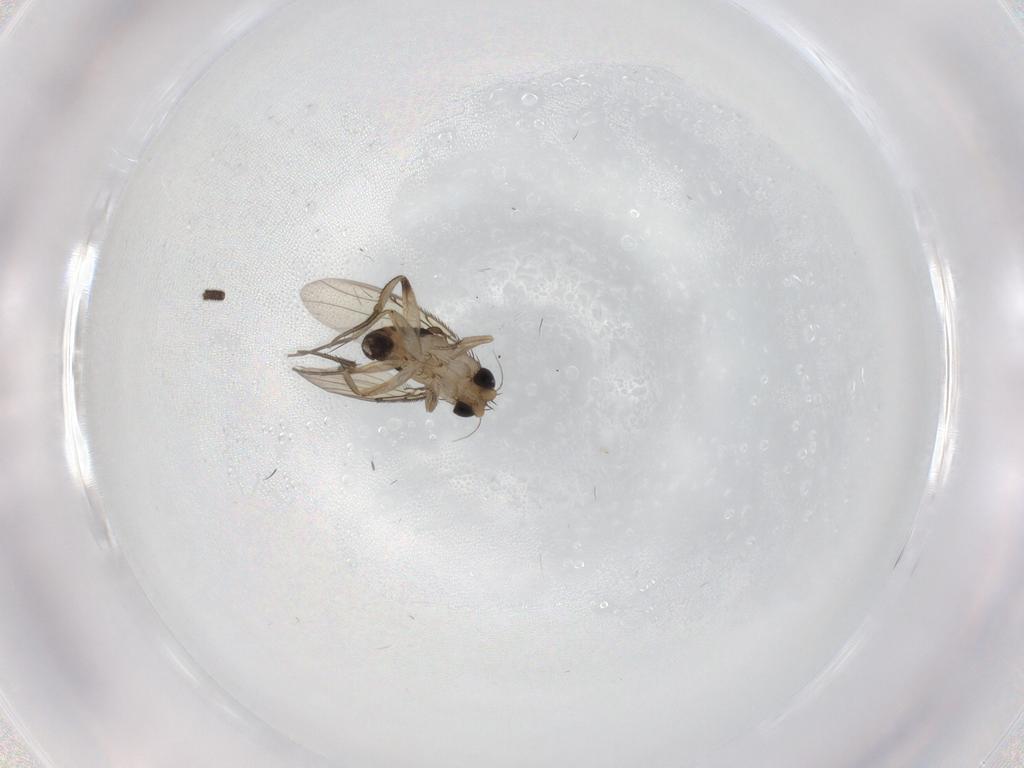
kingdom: Animalia
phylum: Arthropoda
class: Insecta
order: Diptera
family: Phoridae
